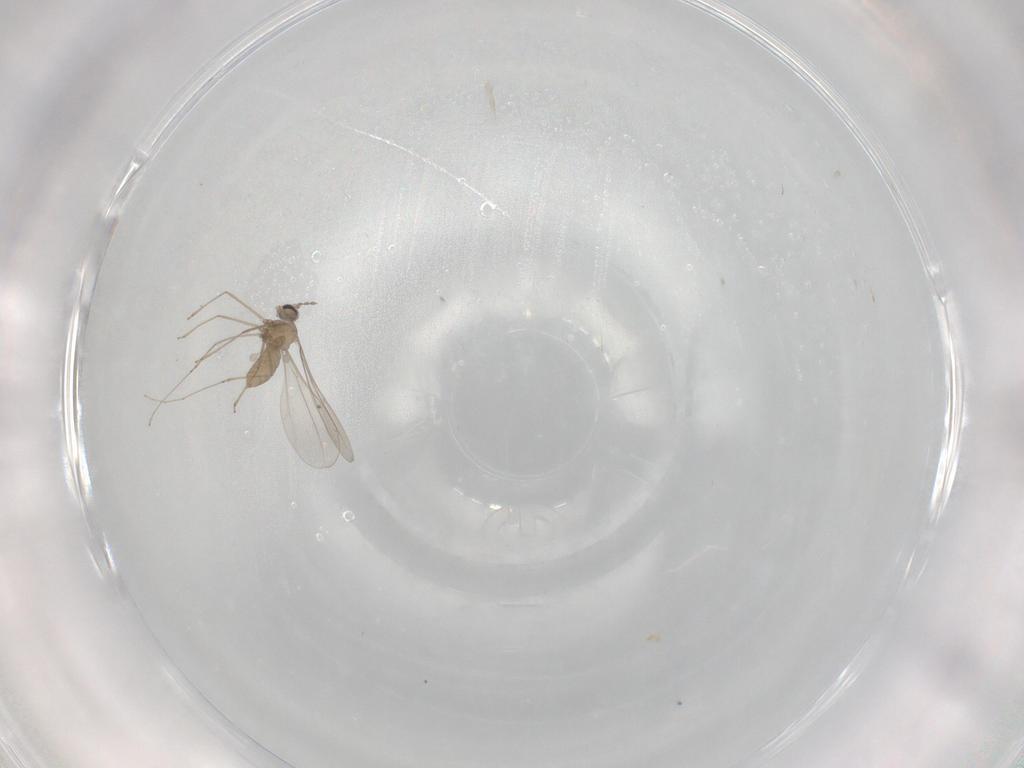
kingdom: Animalia
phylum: Arthropoda
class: Insecta
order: Diptera
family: Cecidomyiidae
